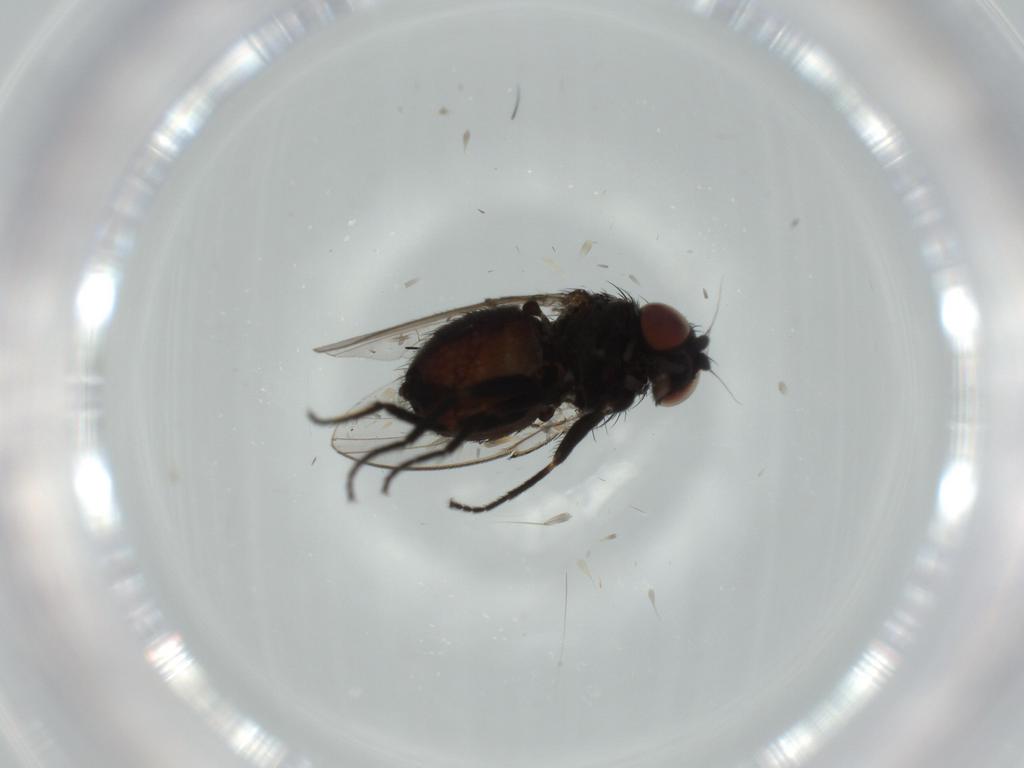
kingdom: Animalia
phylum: Arthropoda
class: Insecta
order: Diptera
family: Milichiidae
